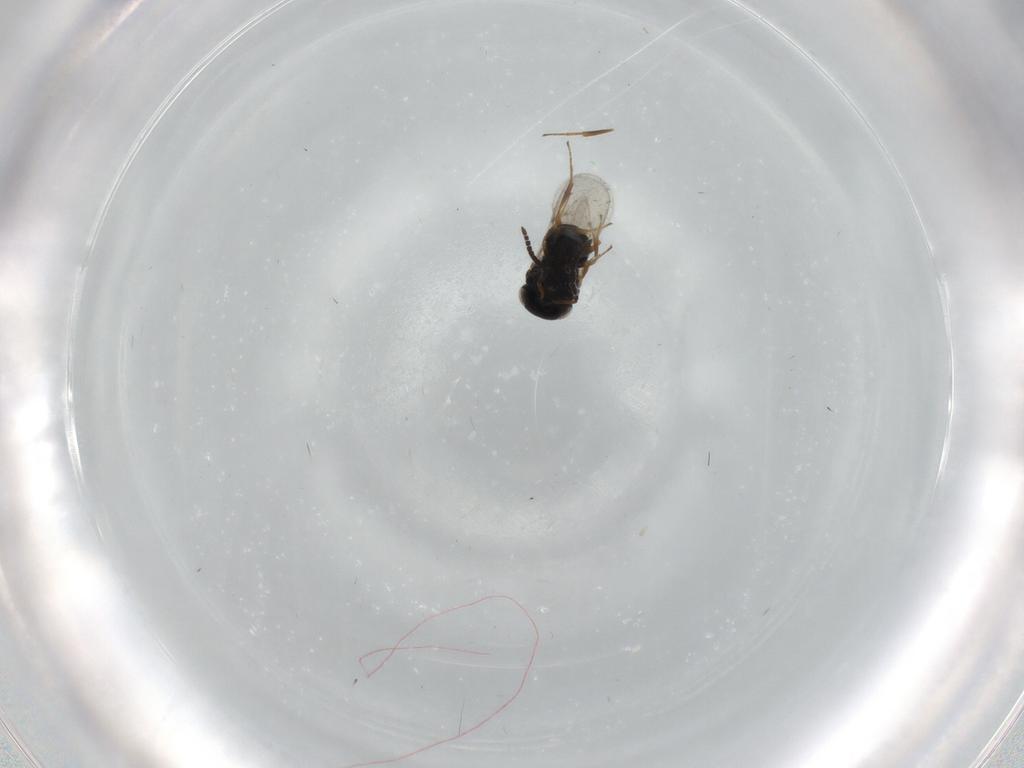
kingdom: Animalia
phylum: Arthropoda
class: Insecta
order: Hymenoptera
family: Scelionidae
